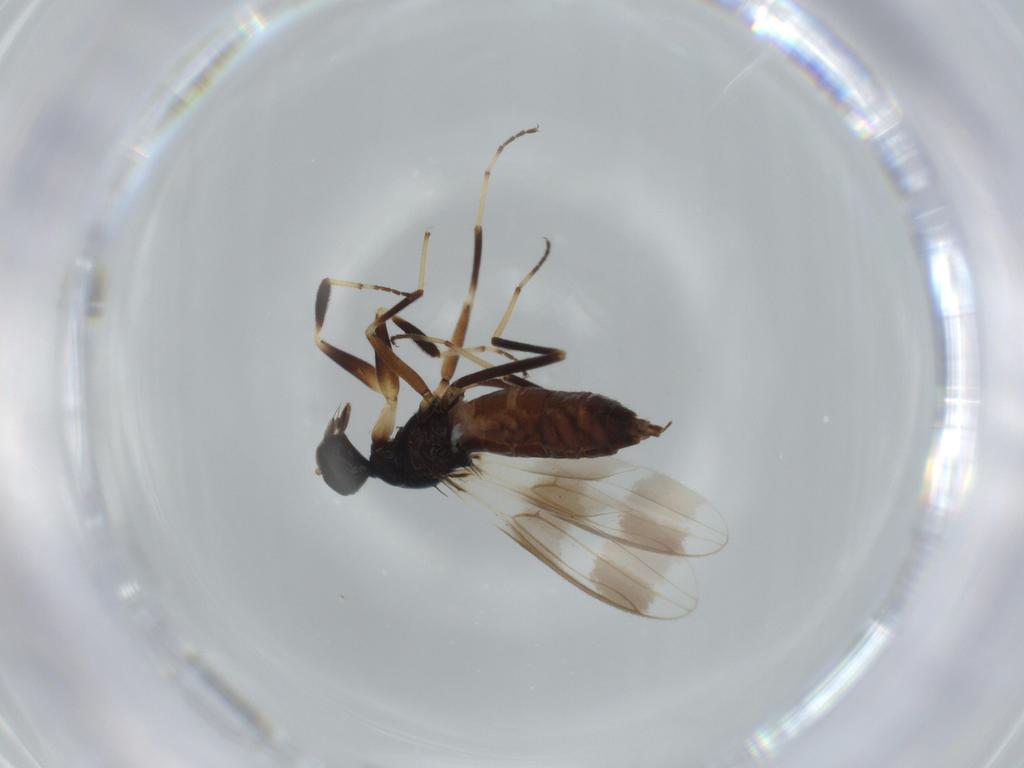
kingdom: Animalia
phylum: Arthropoda
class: Insecta
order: Diptera
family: Hybotidae
